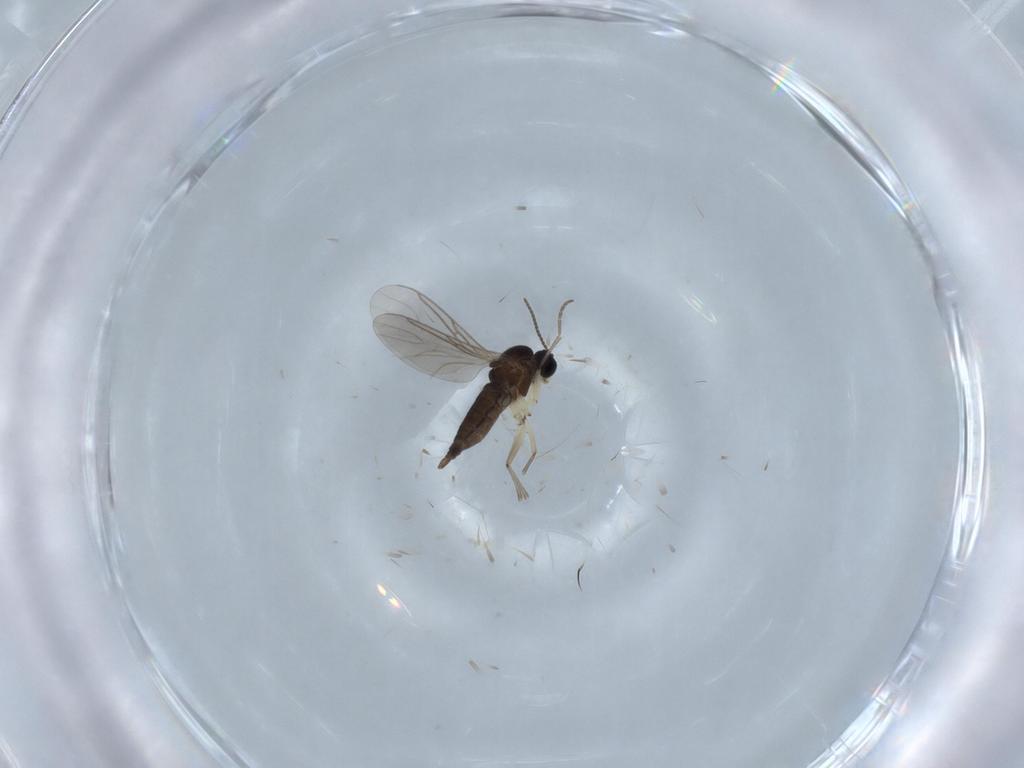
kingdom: Animalia
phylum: Arthropoda
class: Insecta
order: Diptera
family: Sciaridae
